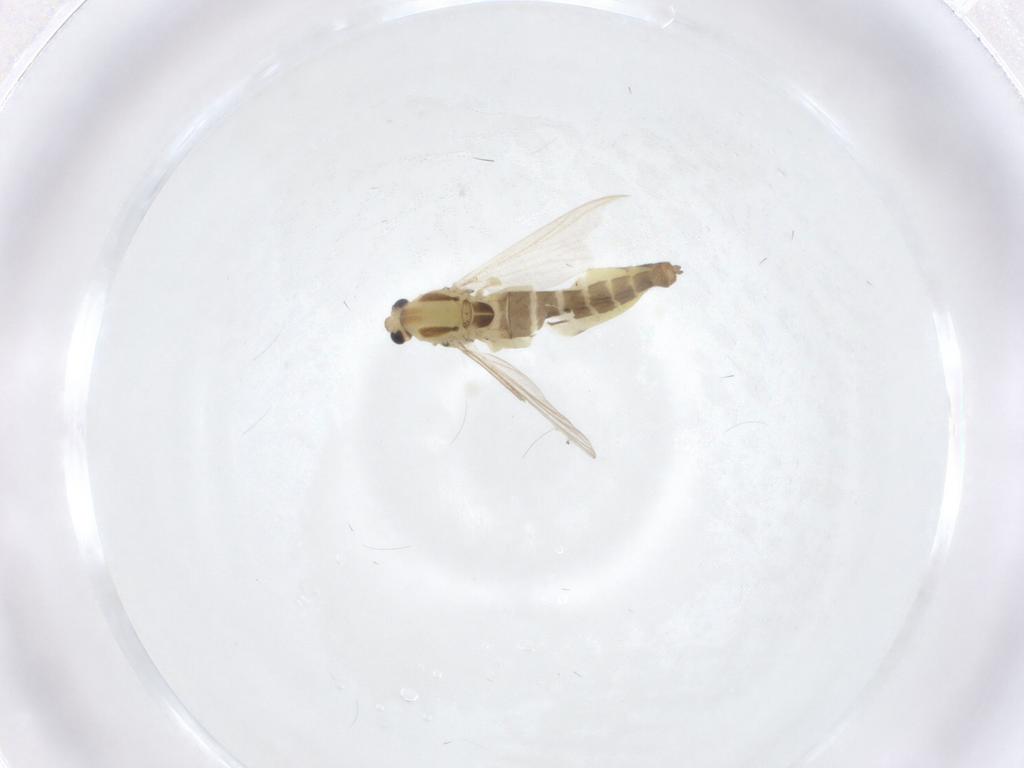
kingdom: Animalia
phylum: Arthropoda
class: Insecta
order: Diptera
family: Chironomidae
